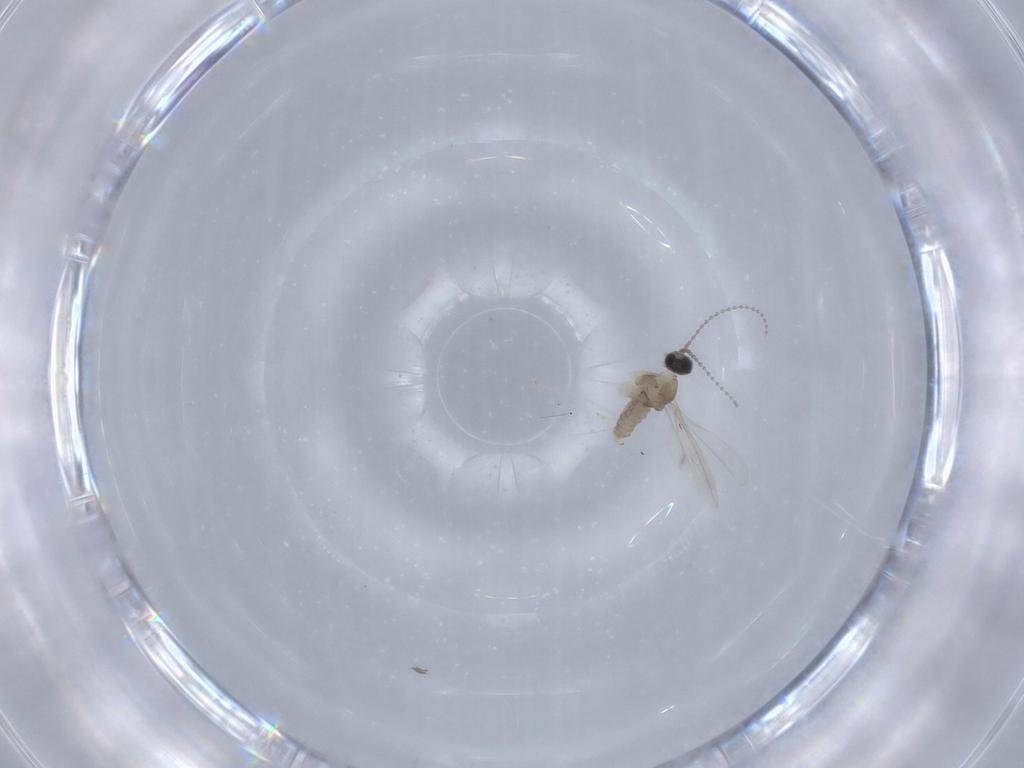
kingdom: Animalia
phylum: Arthropoda
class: Insecta
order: Diptera
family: Cecidomyiidae
